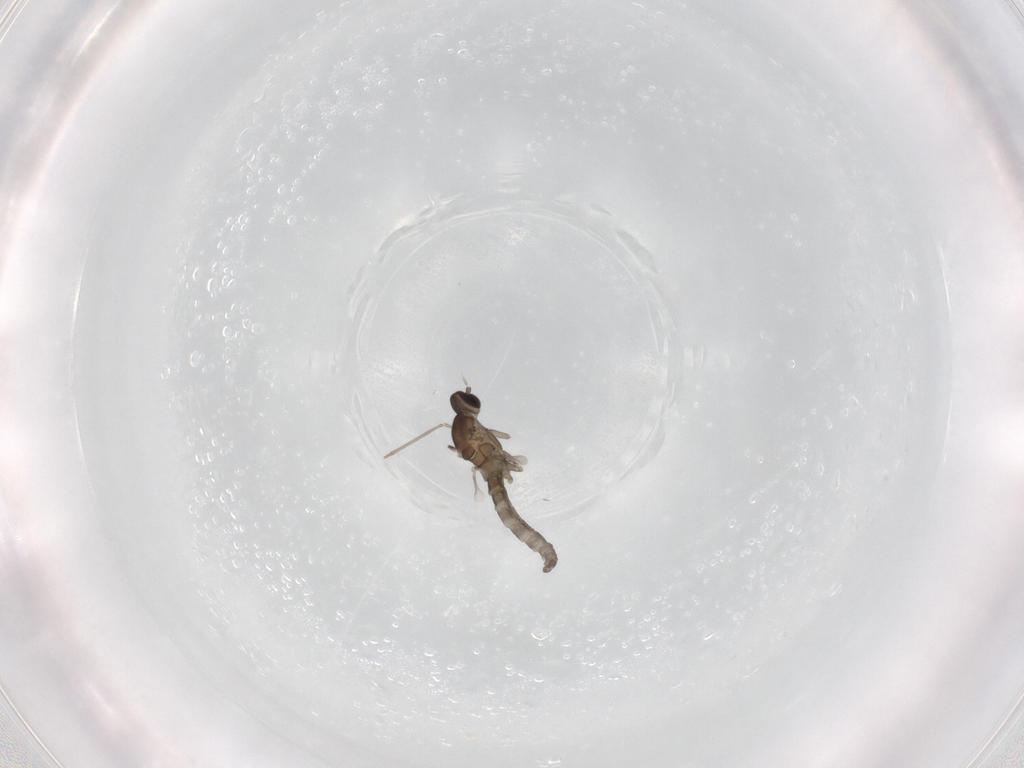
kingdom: Animalia
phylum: Arthropoda
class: Insecta
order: Diptera
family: Cecidomyiidae
